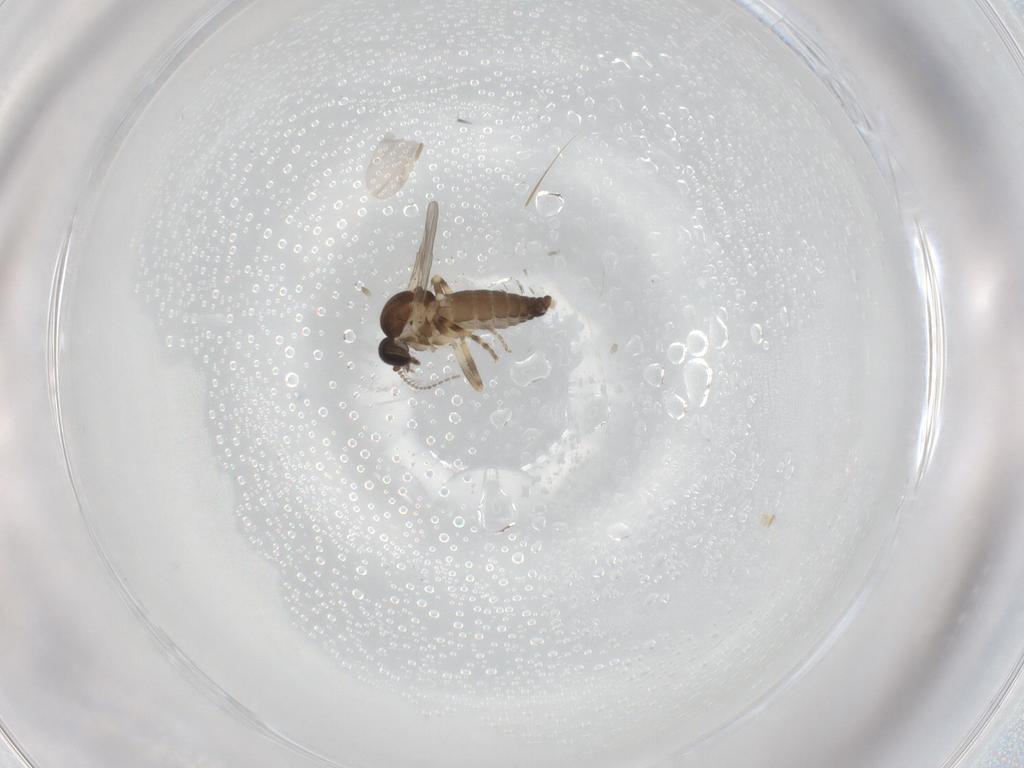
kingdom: Animalia
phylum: Arthropoda
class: Insecta
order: Diptera
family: Ceratopogonidae
